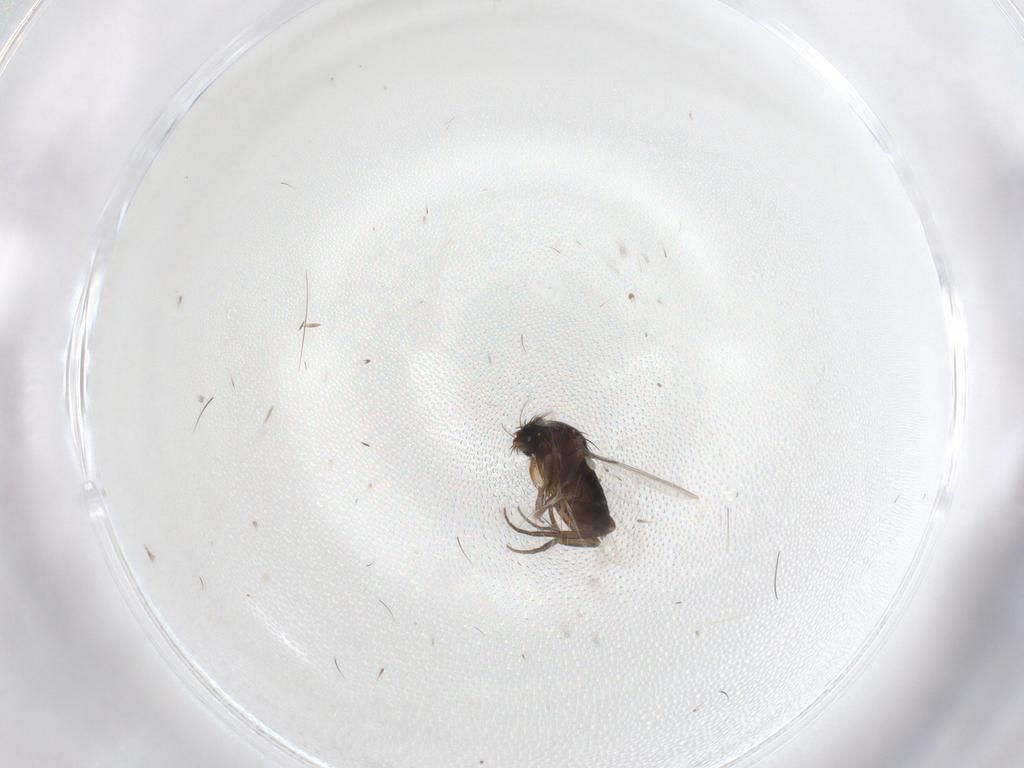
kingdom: Animalia
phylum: Arthropoda
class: Insecta
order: Diptera
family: Phoridae
